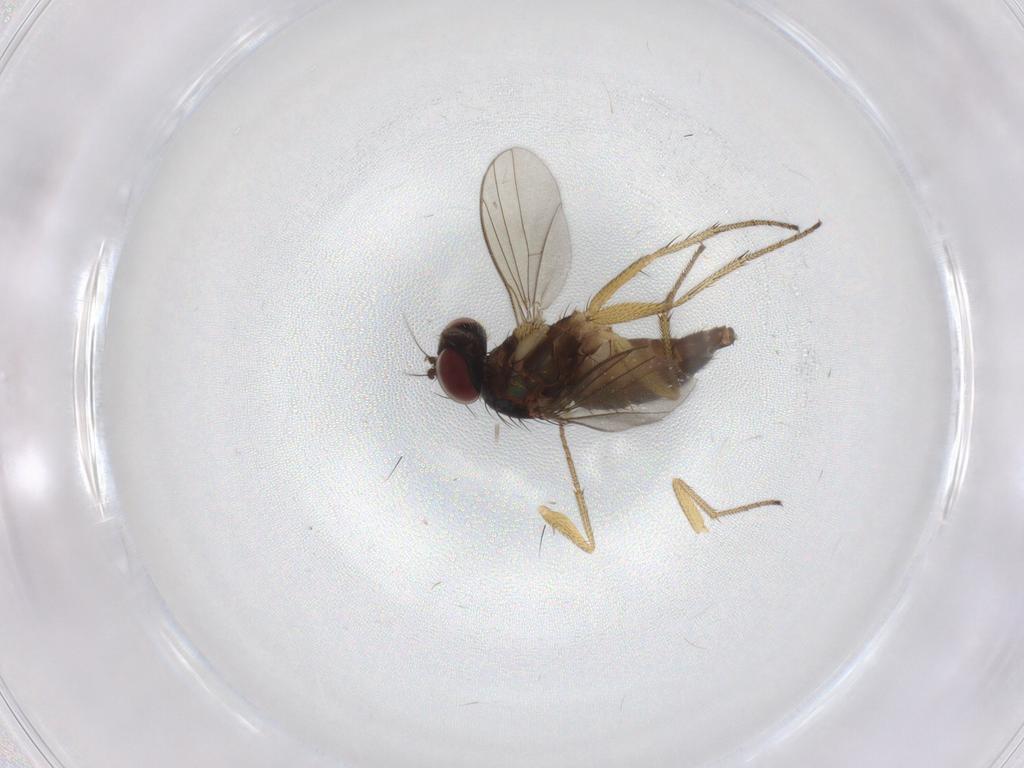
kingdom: Animalia
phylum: Arthropoda
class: Insecta
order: Diptera
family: Dolichopodidae
